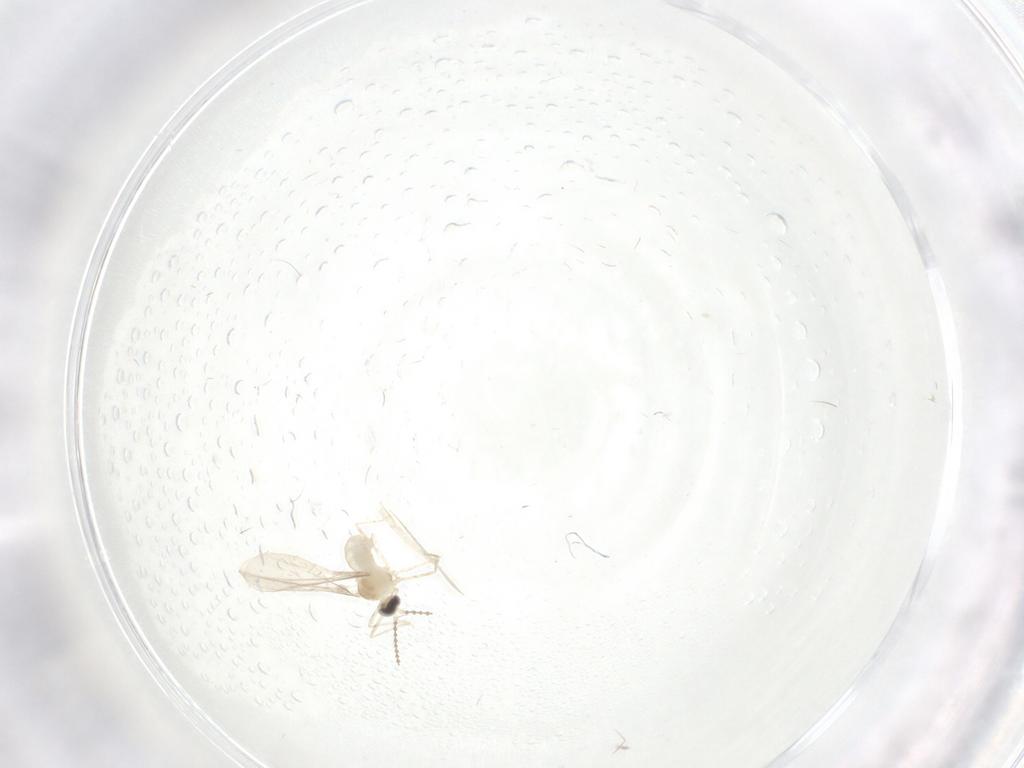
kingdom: Animalia
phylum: Arthropoda
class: Insecta
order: Diptera
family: Cecidomyiidae
